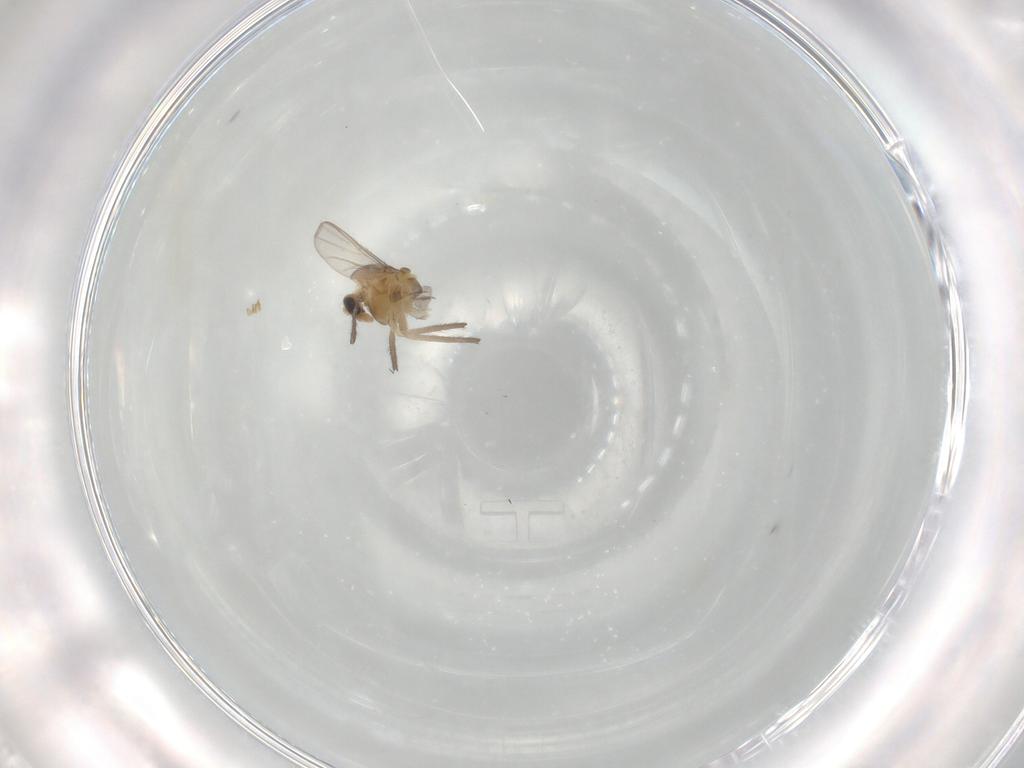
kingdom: Animalia
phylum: Arthropoda
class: Insecta
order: Diptera
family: Chironomidae
